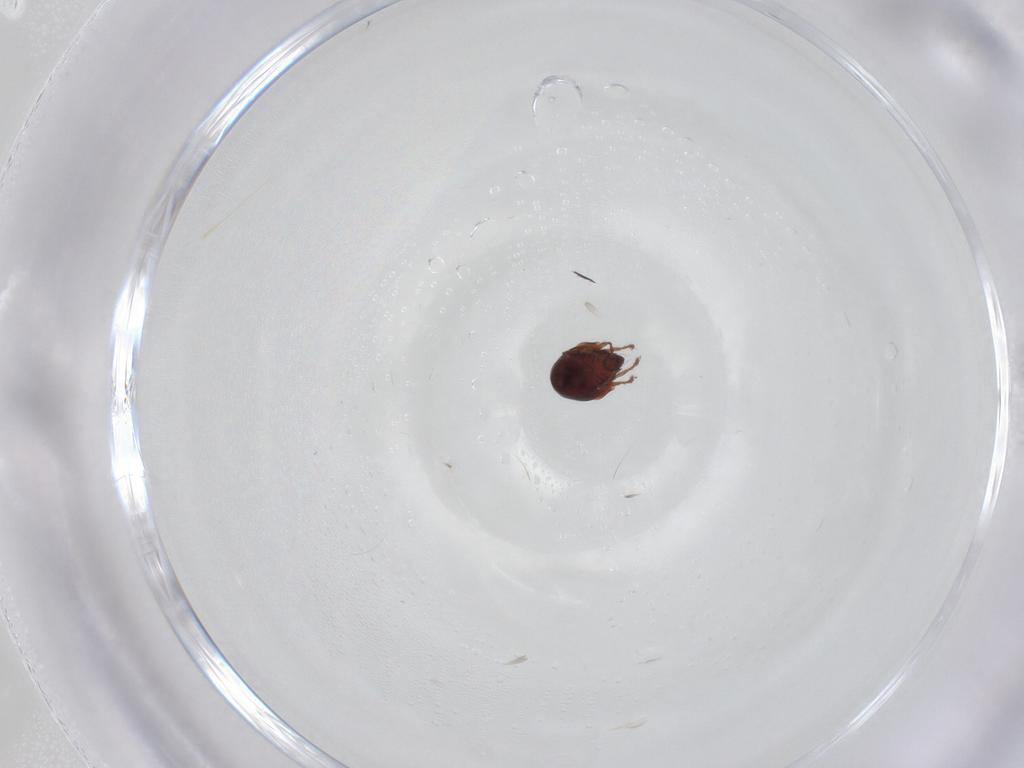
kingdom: Animalia
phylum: Arthropoda
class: Arachnida
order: Sarcoptiformes
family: Ceratozetidae
